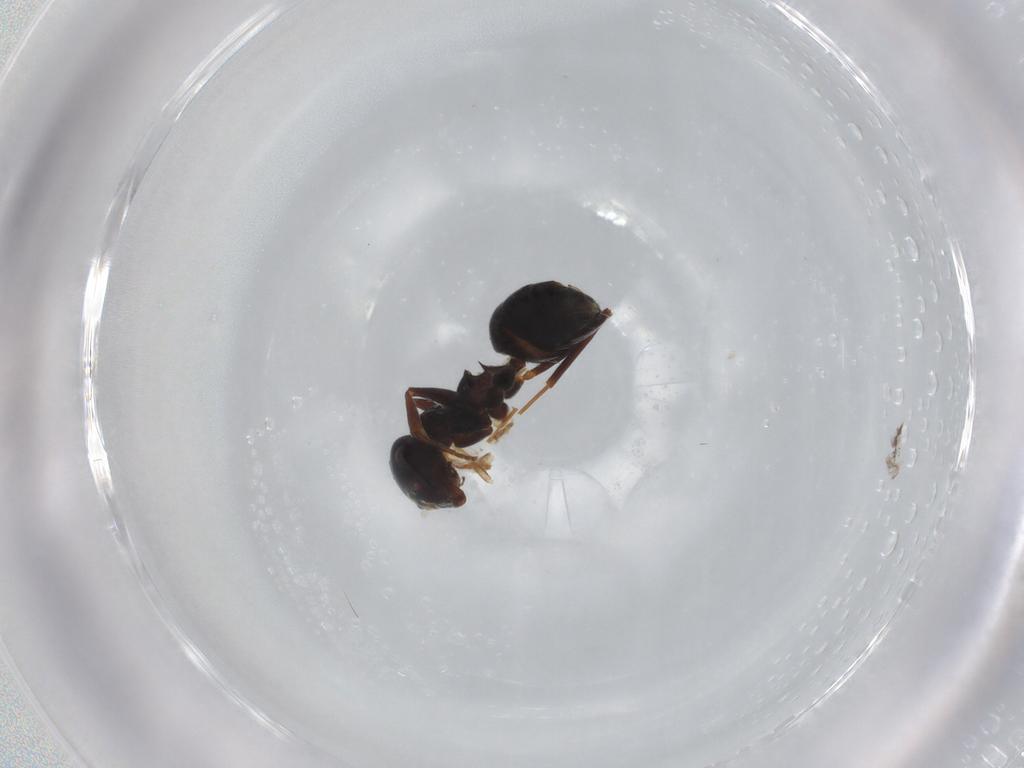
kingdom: Animalia
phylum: Arthropoda
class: Insecta
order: Hymenoptera
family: Formicidae
